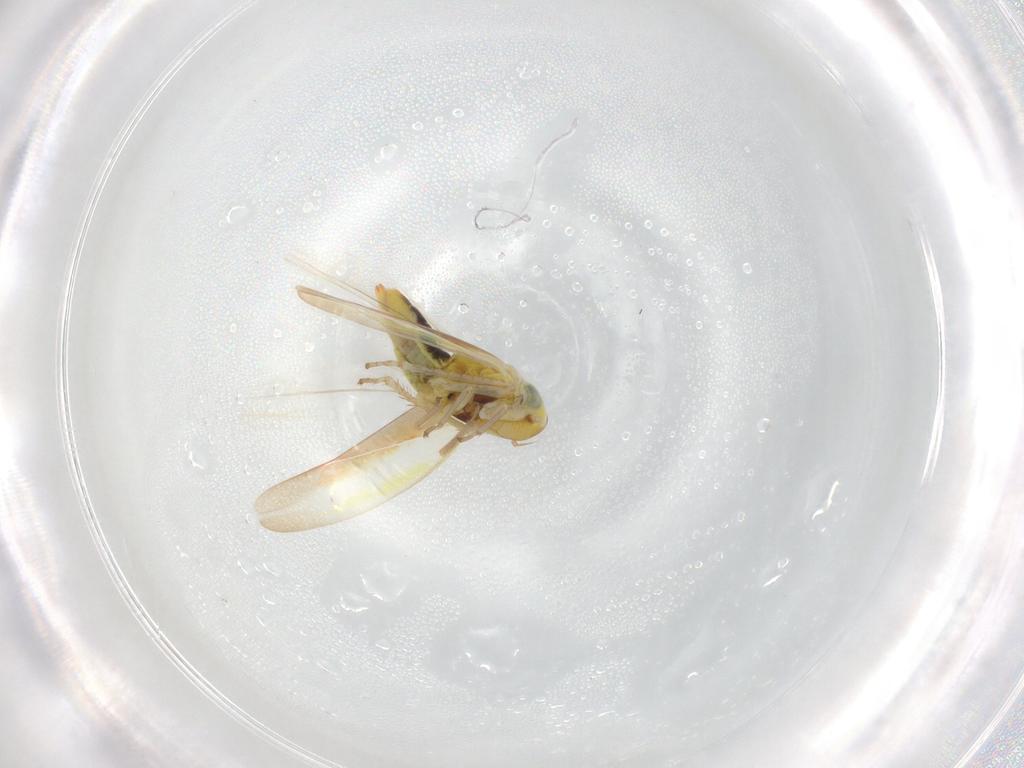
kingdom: Animalia
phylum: Arthropoda
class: Insecta
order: Hemiptera
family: Cicadellidae
